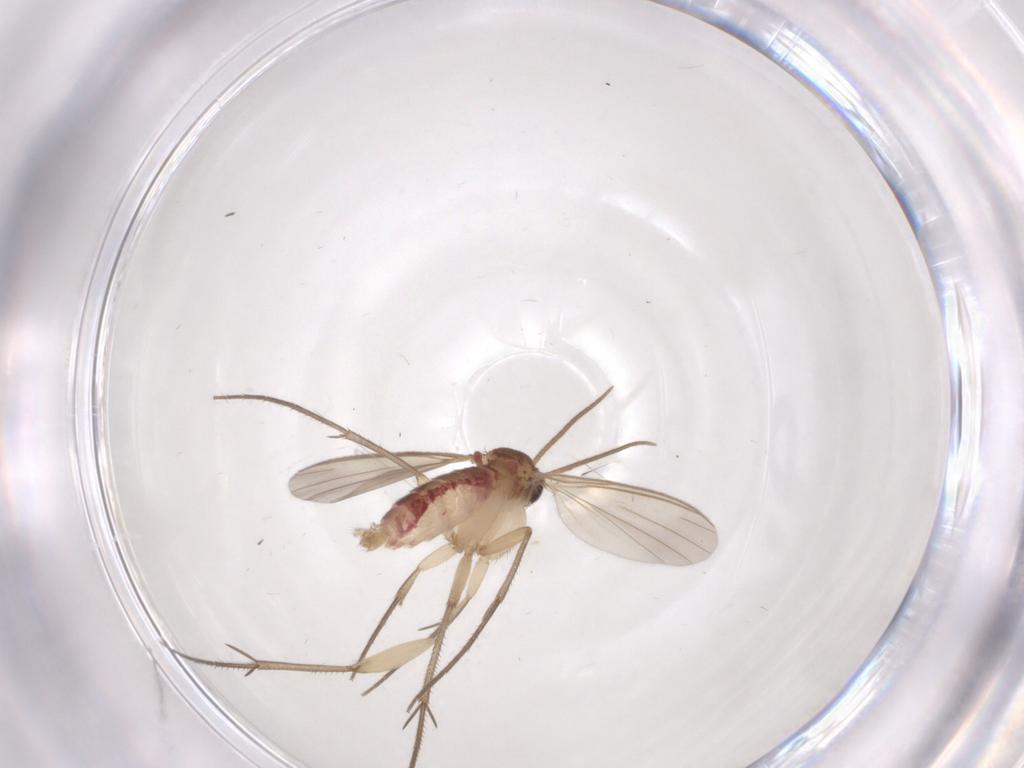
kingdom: Animalia
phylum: Arthropoda
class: Insecta
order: Diptera
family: Mycetophilidae
